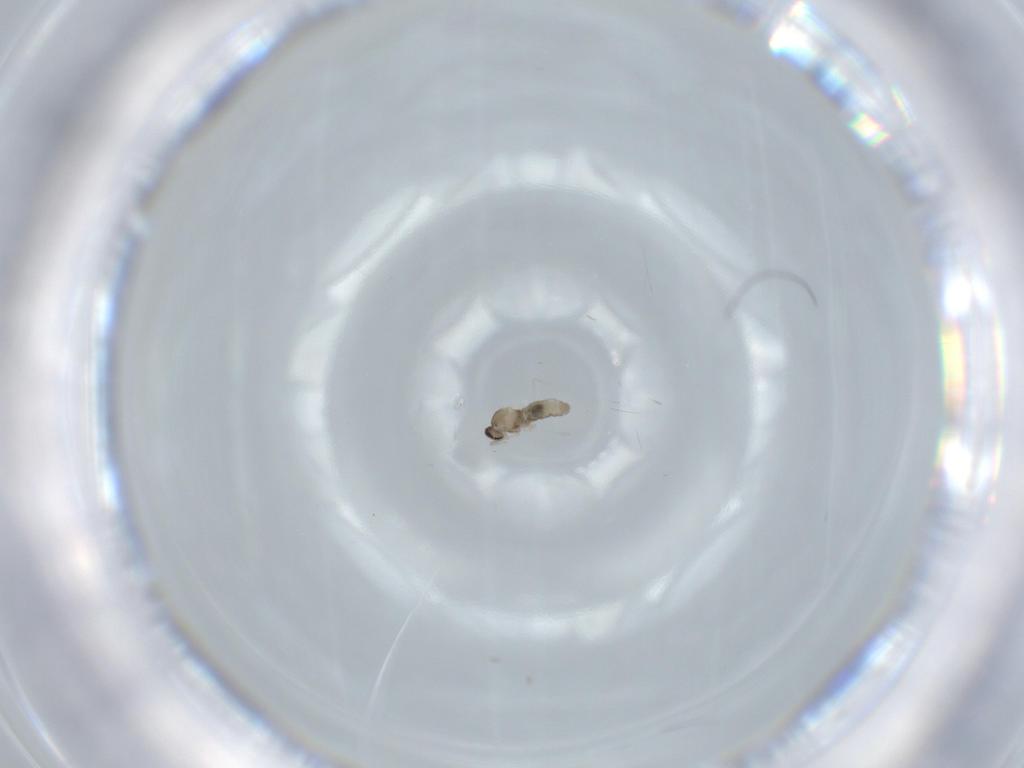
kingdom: Animalia
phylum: Arthropoda
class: Insecta
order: Diptera
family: Cecidomyiidae
